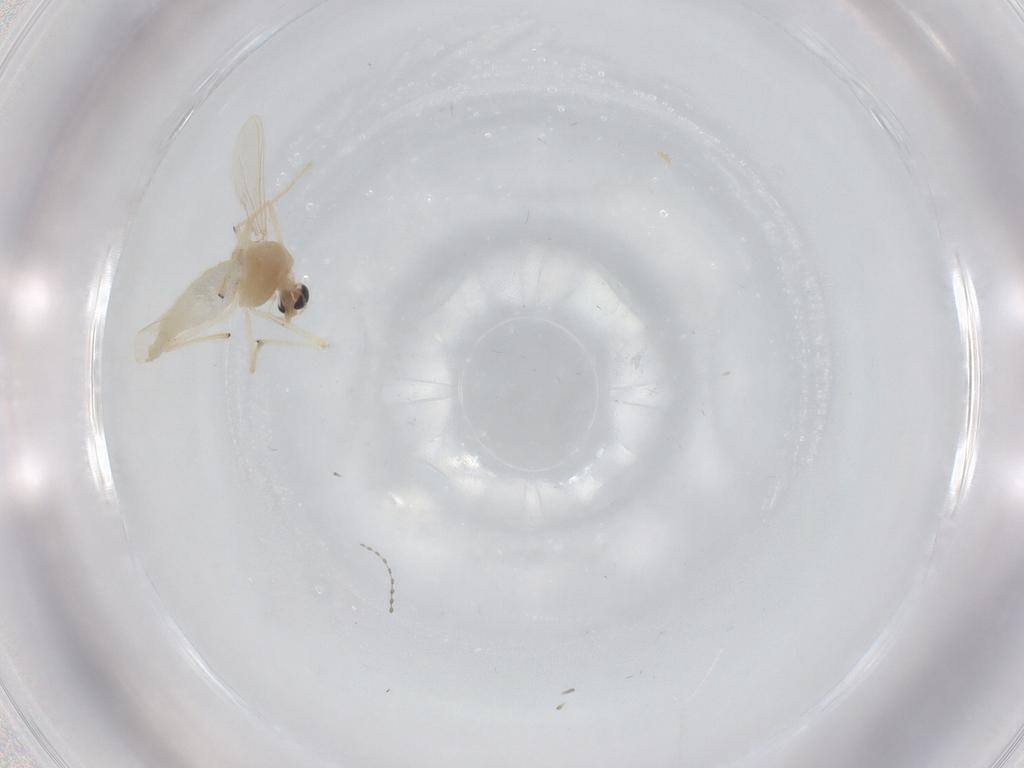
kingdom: Animalia
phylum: Arthropoda
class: Insecta
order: Diptera
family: Chironomidae
